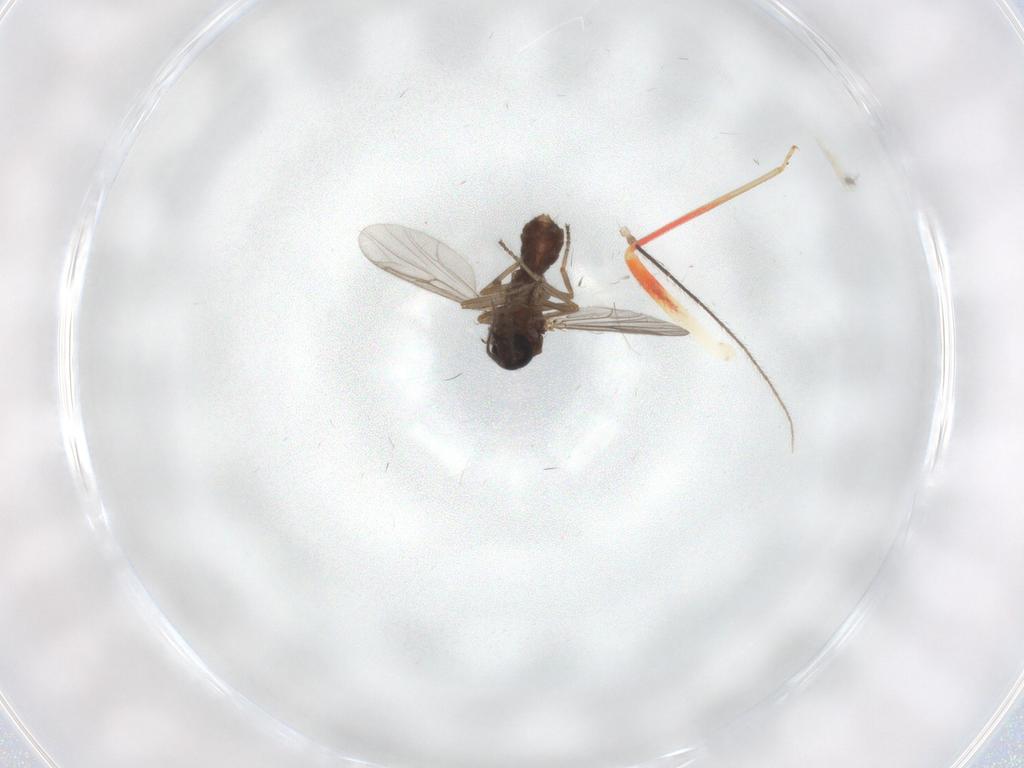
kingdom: Animalia
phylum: Arthropoda
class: Insecta
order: Diptera
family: Ceratopogonidae
